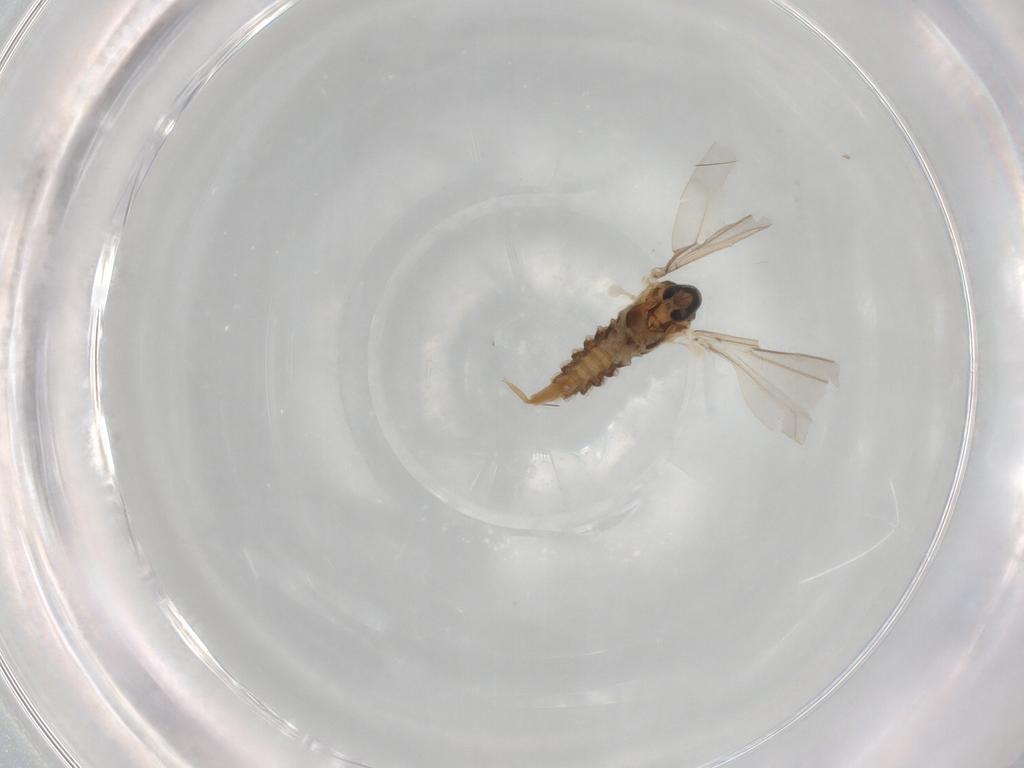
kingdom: Animalia
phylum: Arthropoda
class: Insecta
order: Diptera
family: Cecidomyiidae
